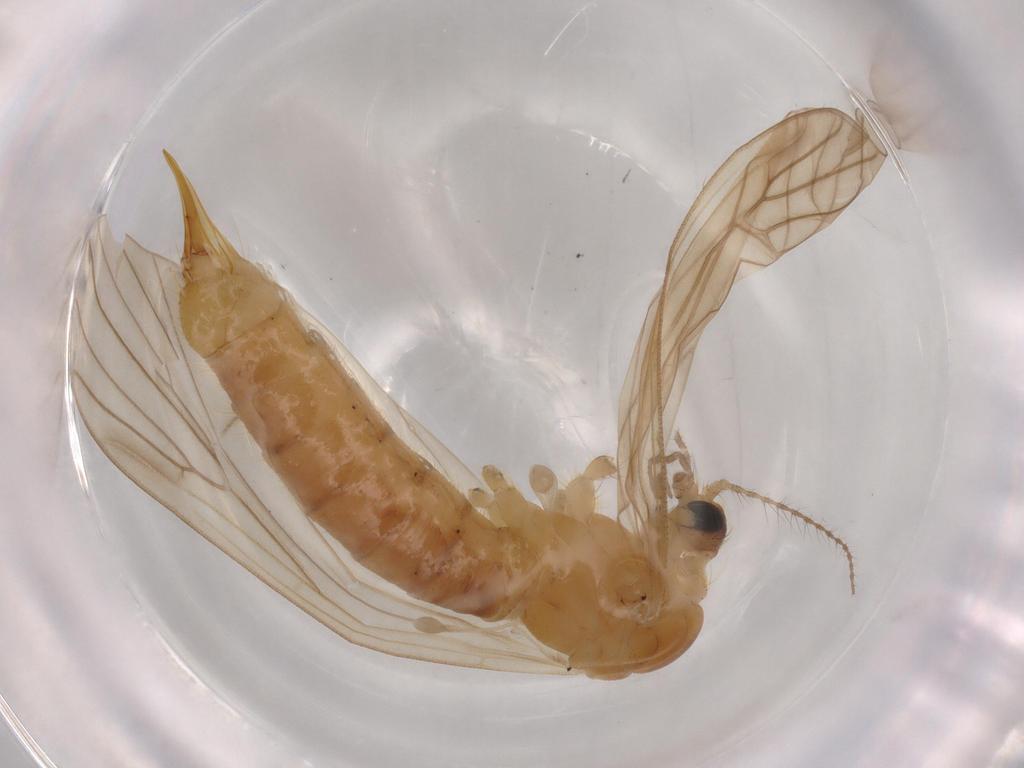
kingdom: Animalia
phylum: Arthropoda
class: Insecta
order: Diptera
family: Limoniidae
